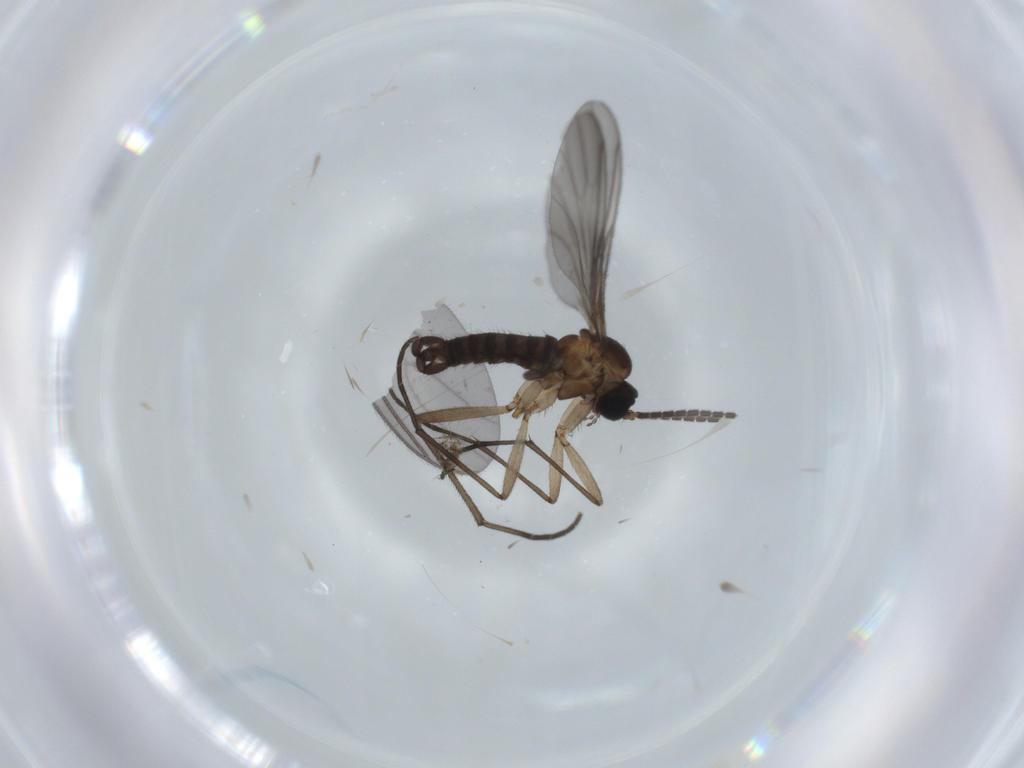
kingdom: Animalia
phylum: Arthropoda
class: Insecta
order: Diptera
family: Sciaridae
